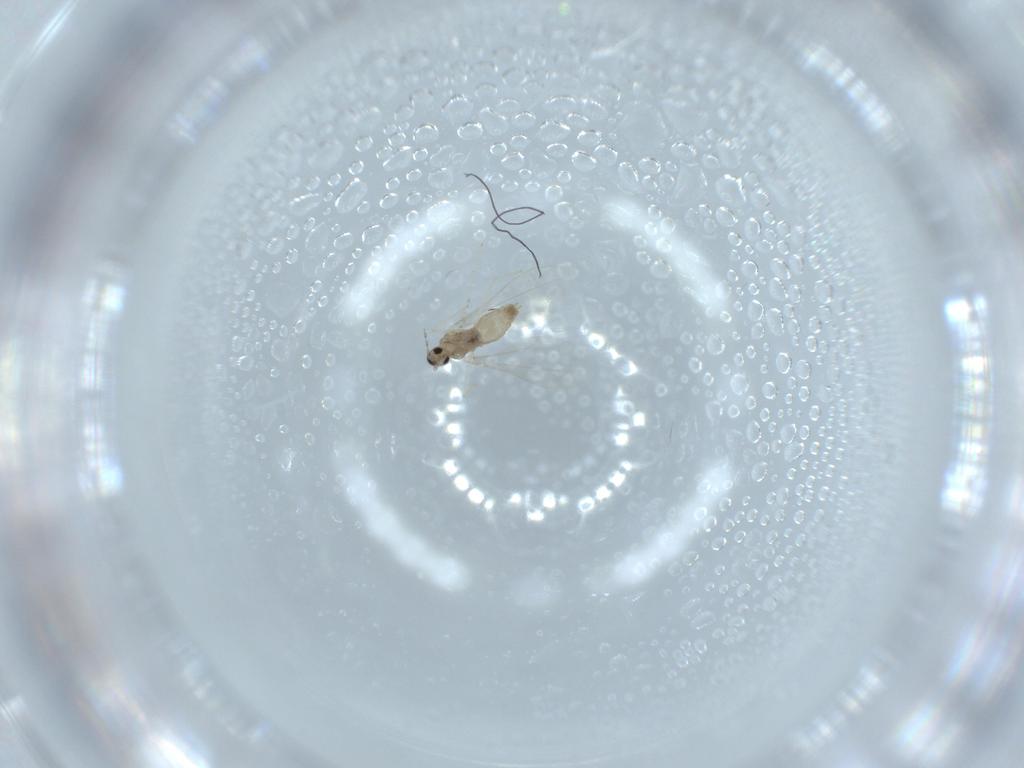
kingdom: Animalia
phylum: Arthropoda
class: Insecta
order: Diptera
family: Cecidomyiidae
